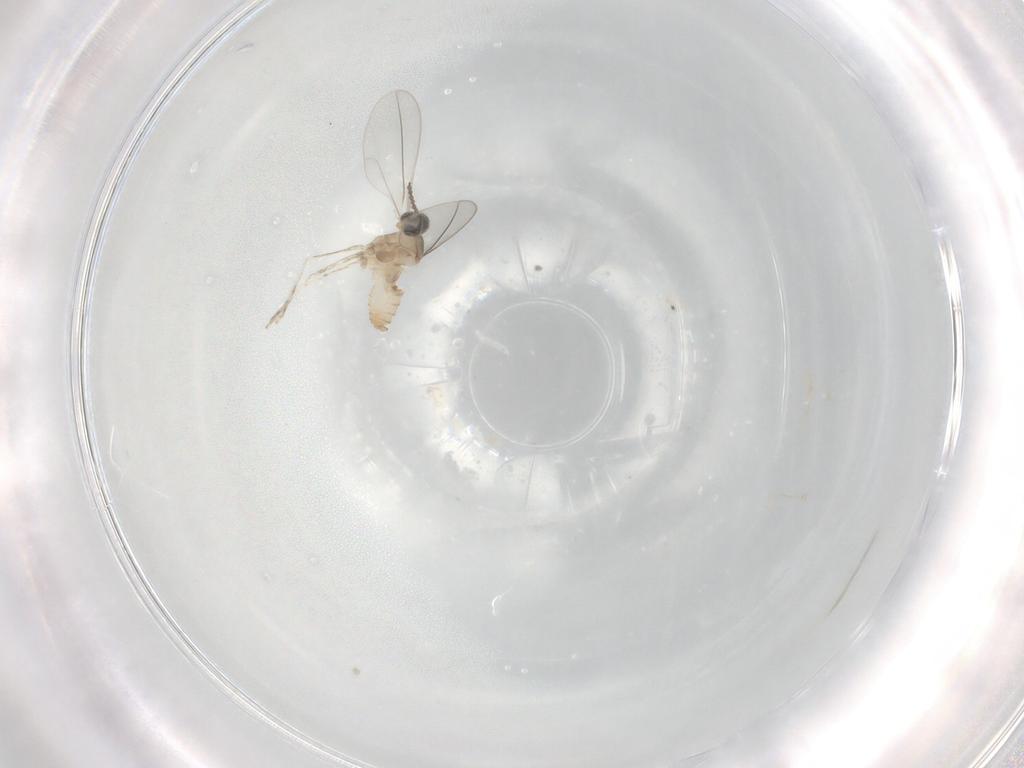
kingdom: Animalia
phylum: Arthropoda
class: Insecta
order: Diptera
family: Cecidomyiidae
